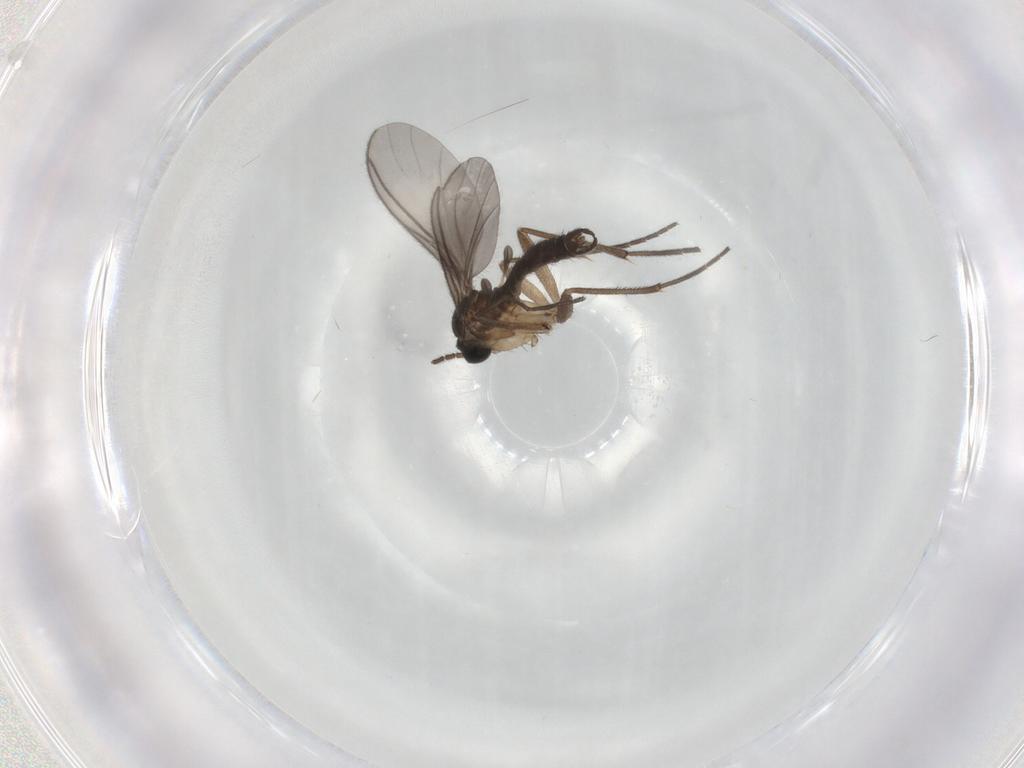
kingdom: Animalia
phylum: Arthropoda
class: Insecta
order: Diptera
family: Sciaridae
